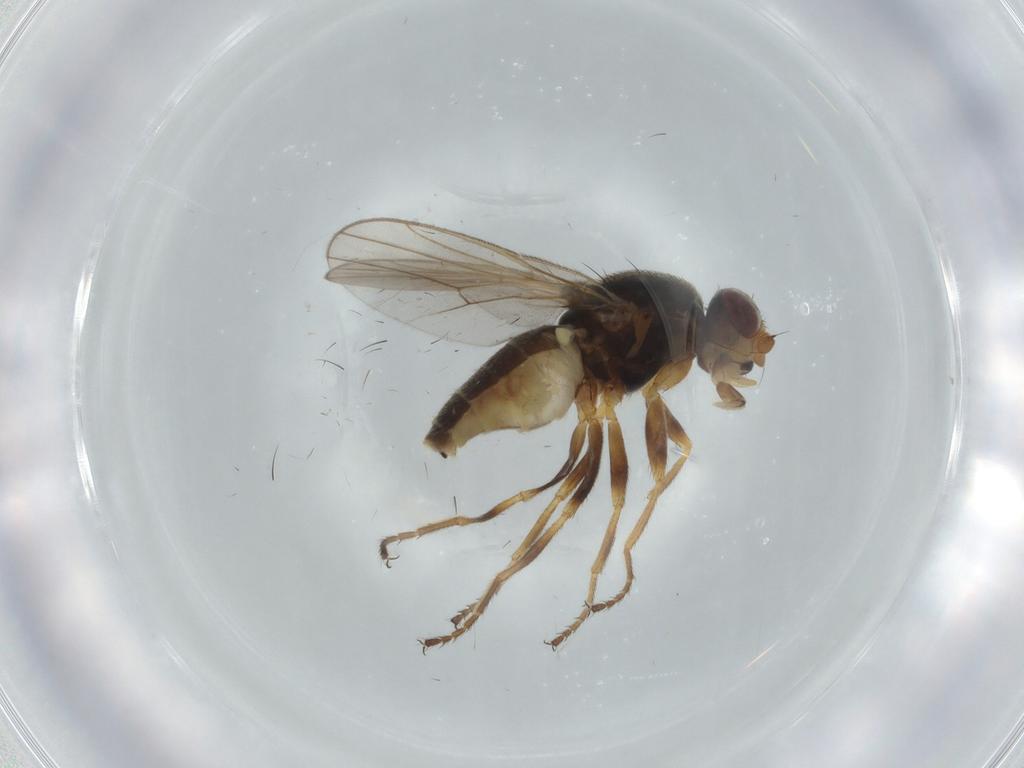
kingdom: Animalia
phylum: Arthropoda
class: Insecta
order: Diptera
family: Chloropidae
